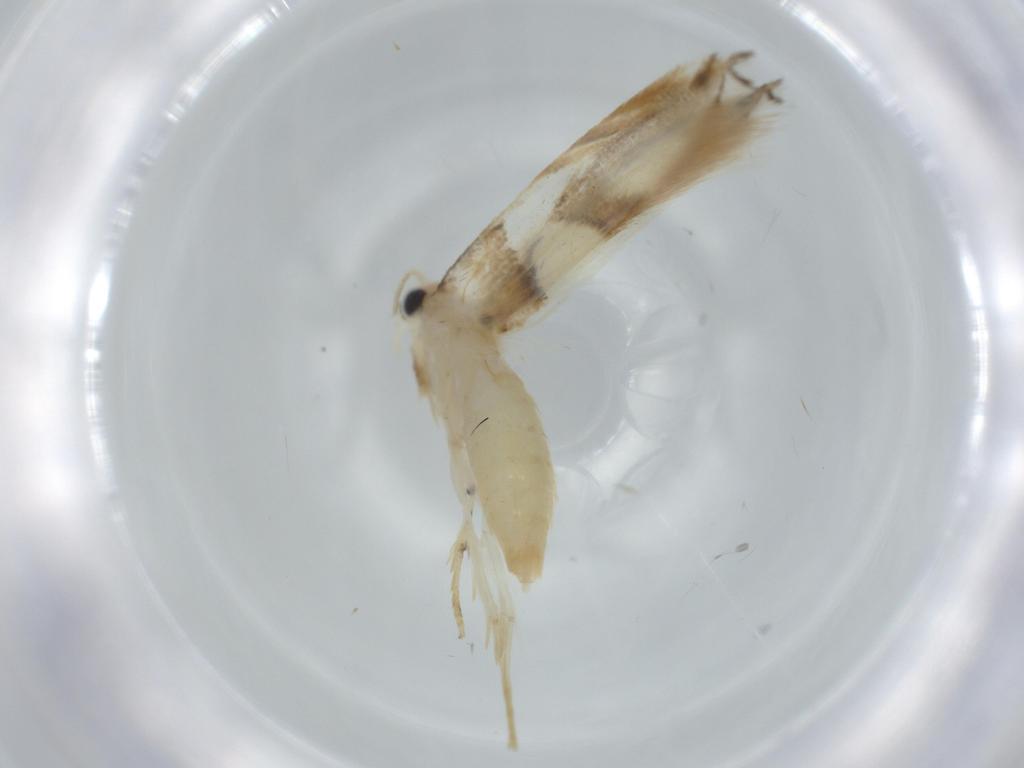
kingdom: Animalia
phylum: Arthropoda
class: Insecta
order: Lepidoptera
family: Tineidae
